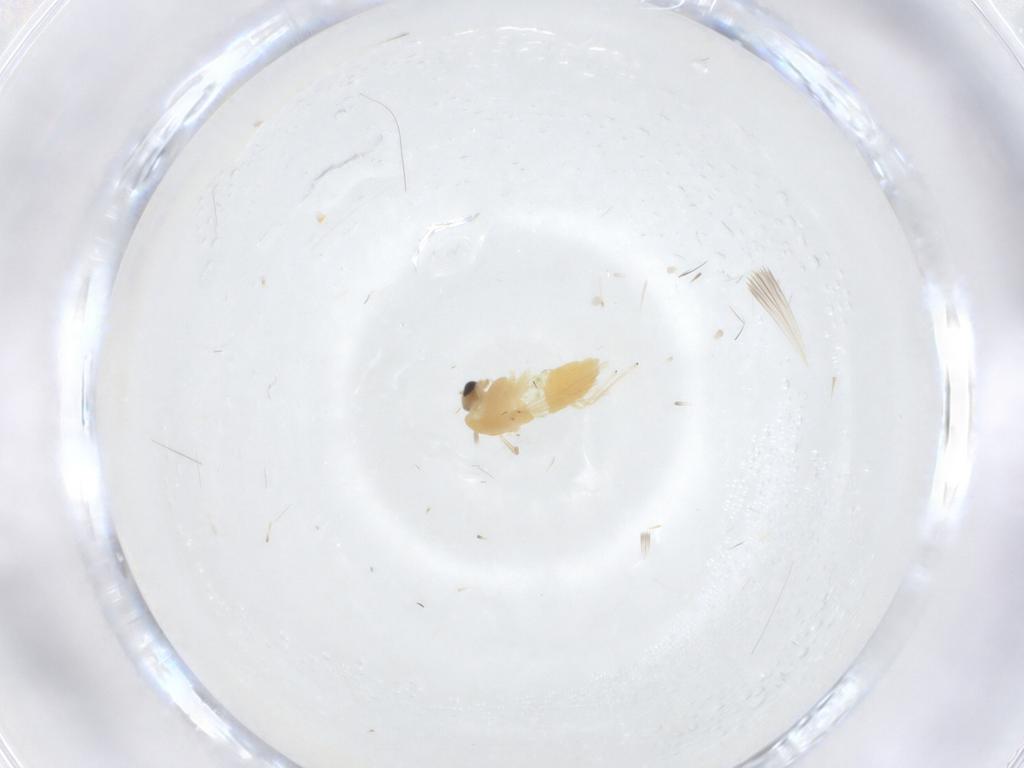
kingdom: Animalia
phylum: Arthropoda
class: Insecta
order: Diptera
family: Chironomidae
